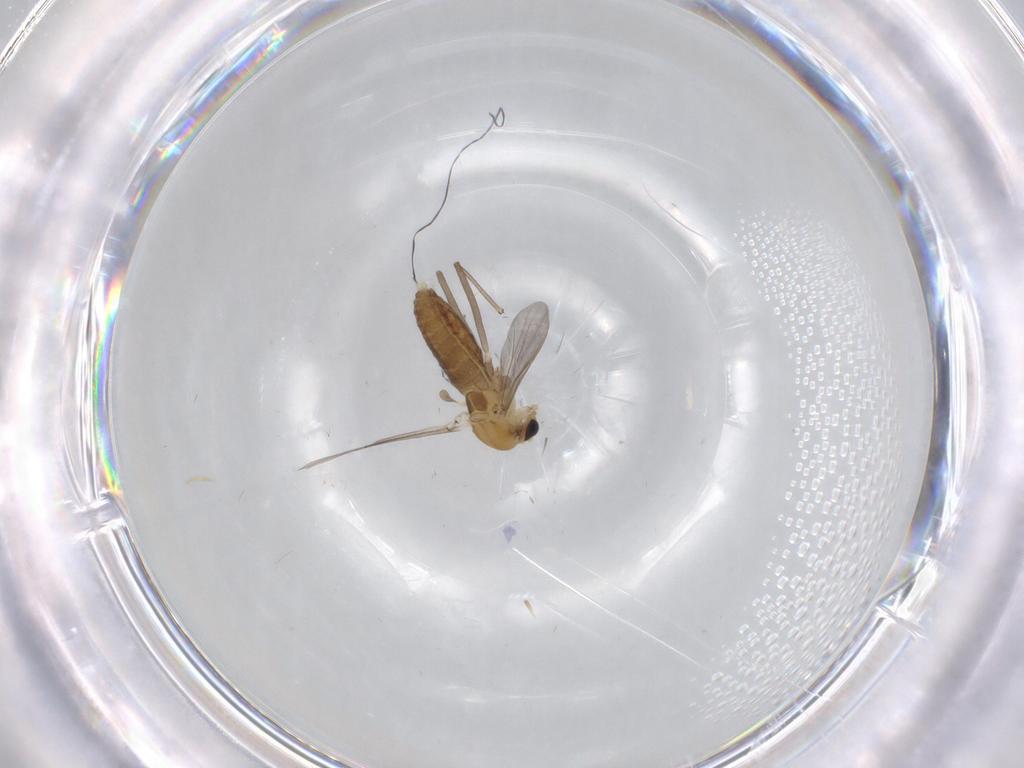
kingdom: Animalia
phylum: Arthropoda
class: Insecta
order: Diptera
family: Chironomidae
